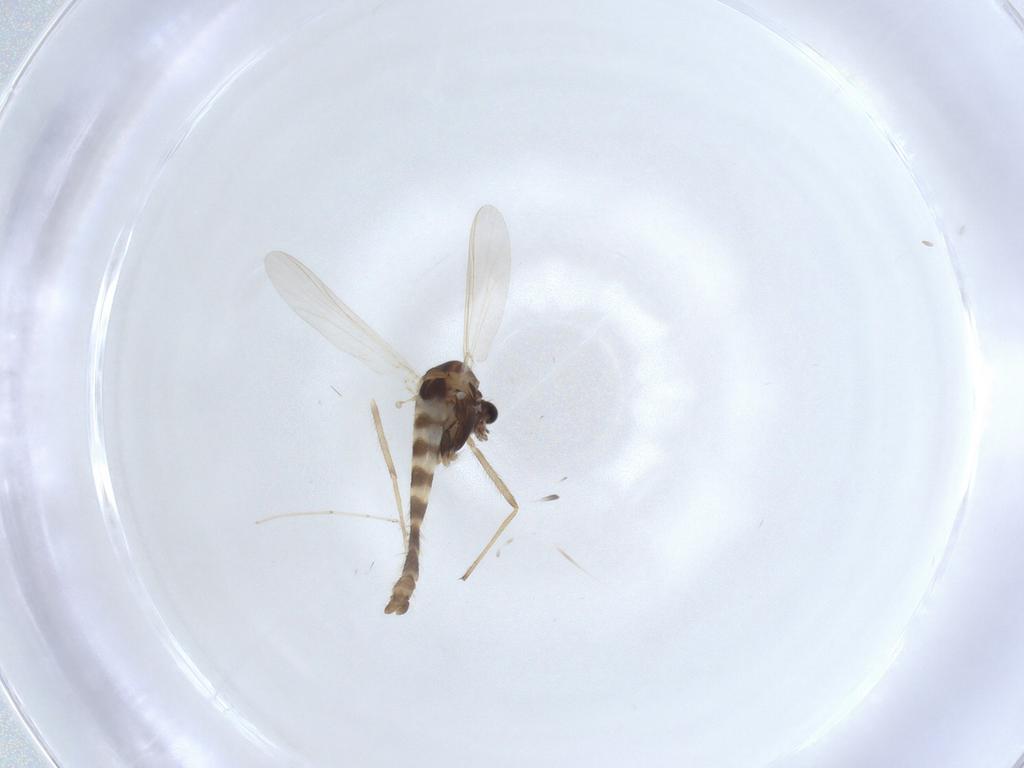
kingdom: Animalia
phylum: Arthropoda
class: Insecta
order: Diptera
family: Chironomidae
